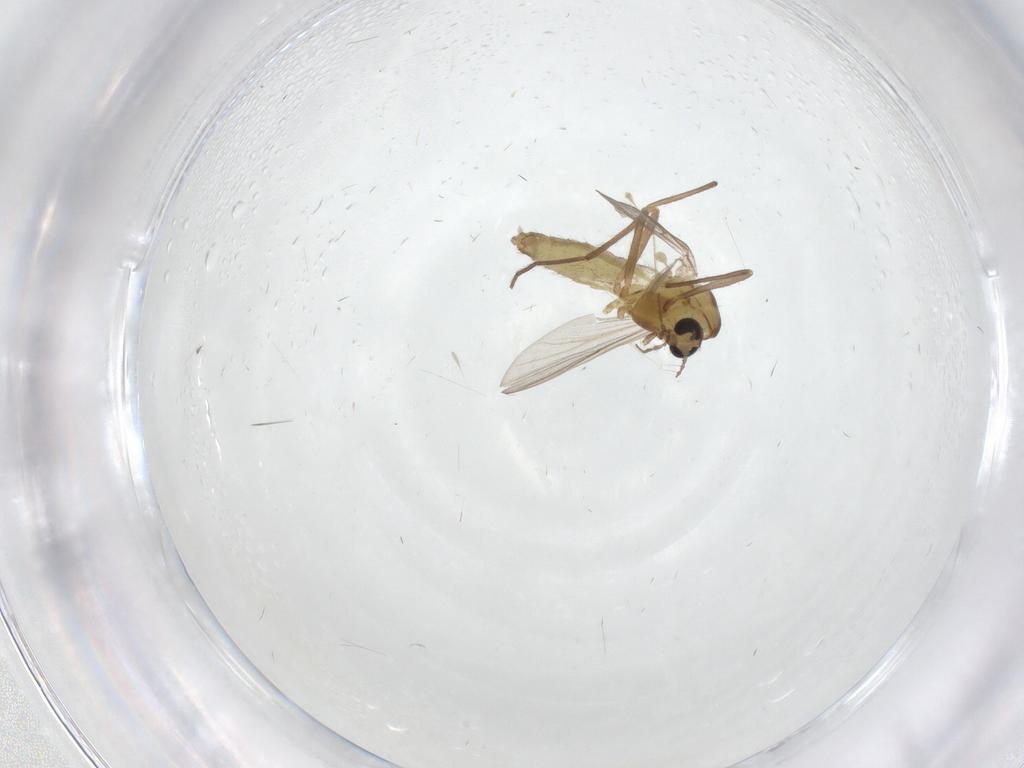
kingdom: Animalia
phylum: Arthropoda
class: Insecta
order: Diptera
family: Chironomidae
